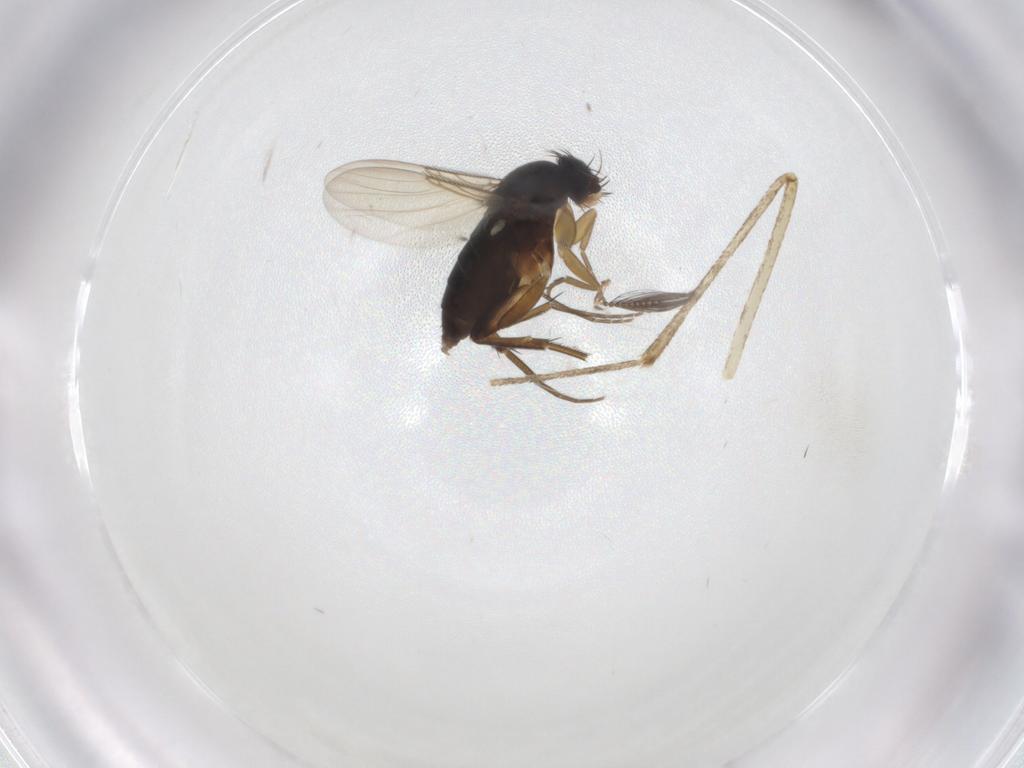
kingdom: Animalia
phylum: Arthropoda
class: Insecta
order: Diptera
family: Phoridae
